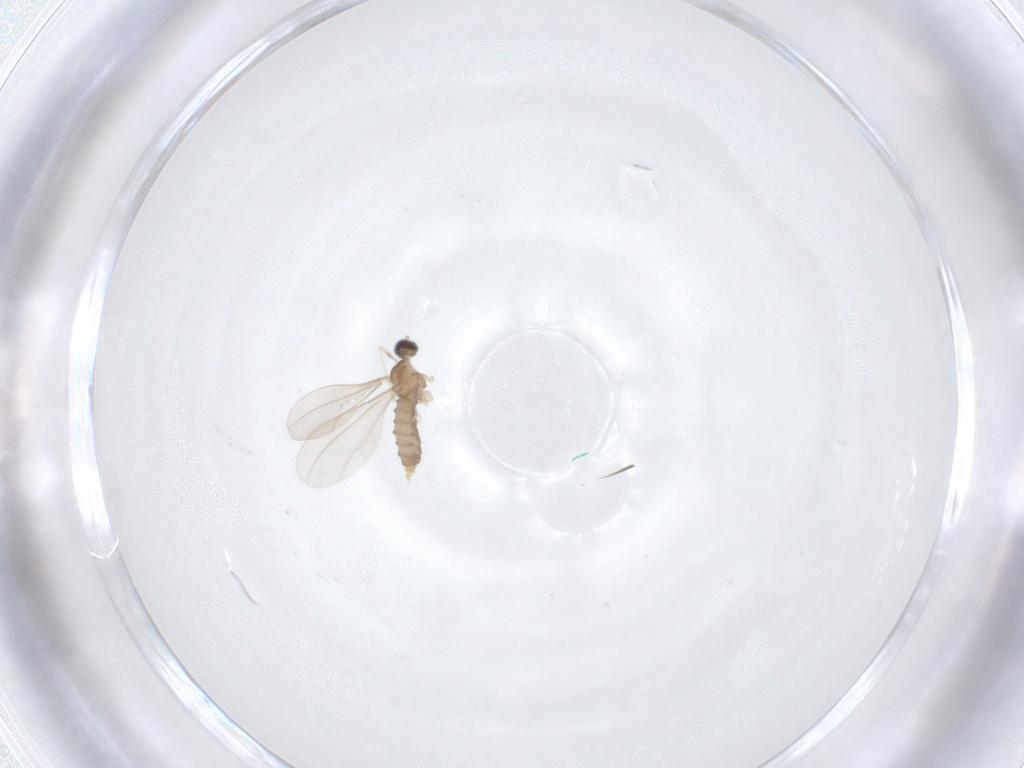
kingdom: Animalia
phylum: Arthropoda
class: Insecta
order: Diptera
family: Cecidomyiidae
